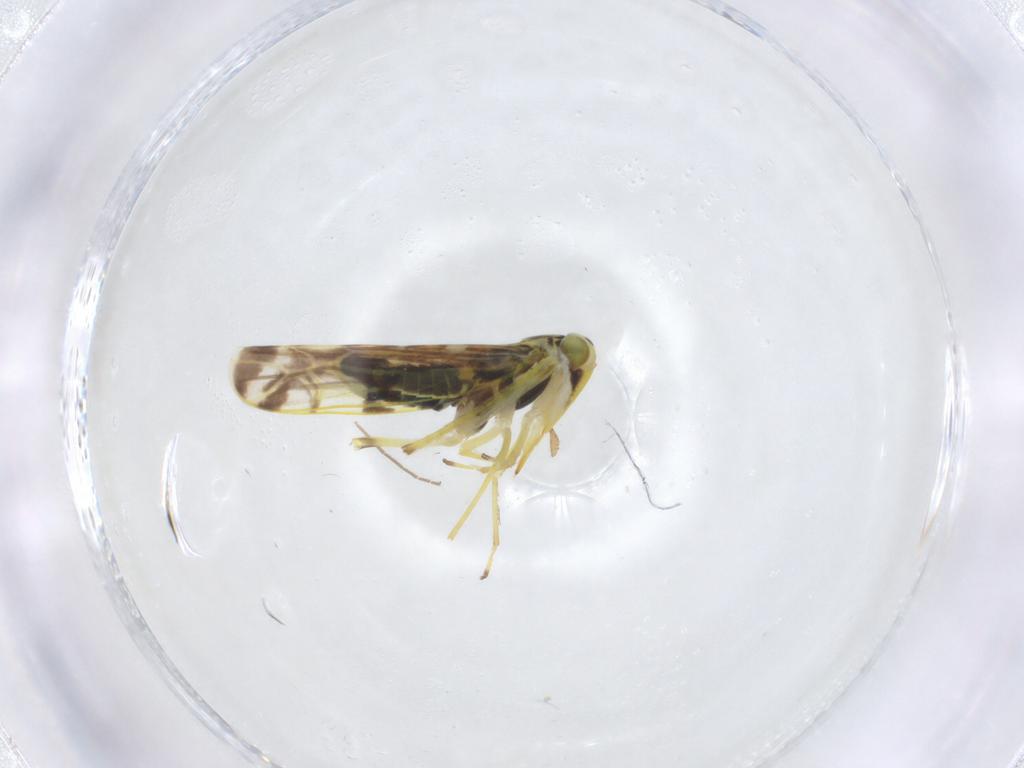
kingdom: Animalia
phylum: Arthropoda
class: Insecta
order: Hemiptera
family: Cicadellidae
